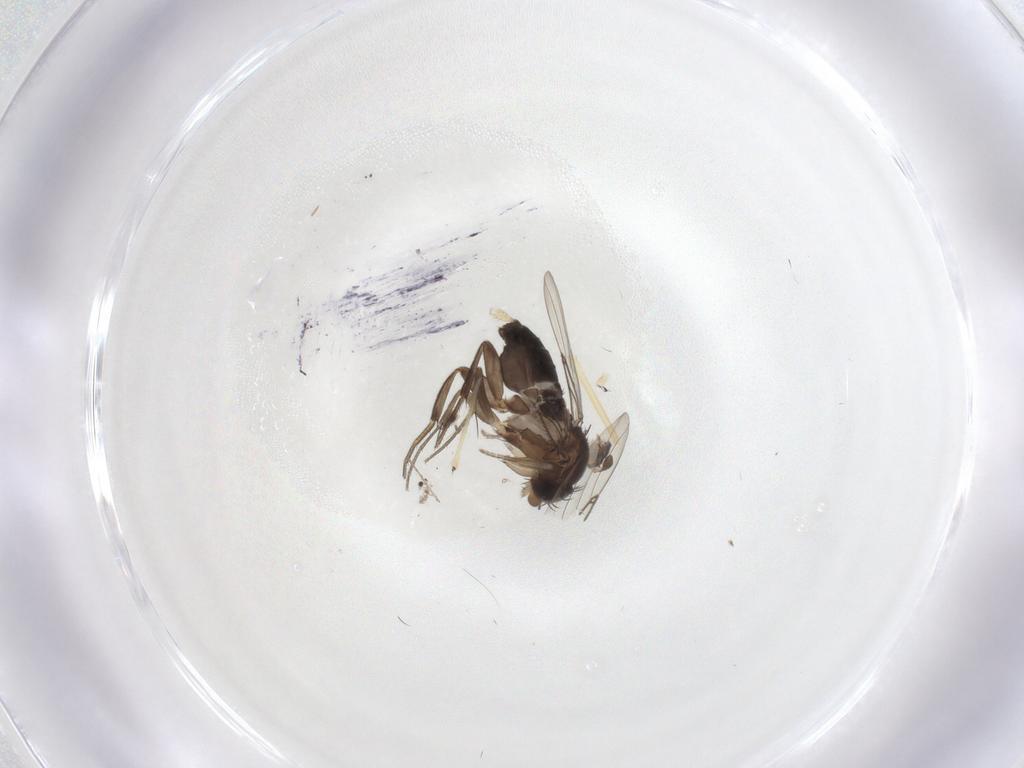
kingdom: Animalia
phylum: Arthropoda
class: Insecta
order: Diptera
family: Cecidomyiidae
